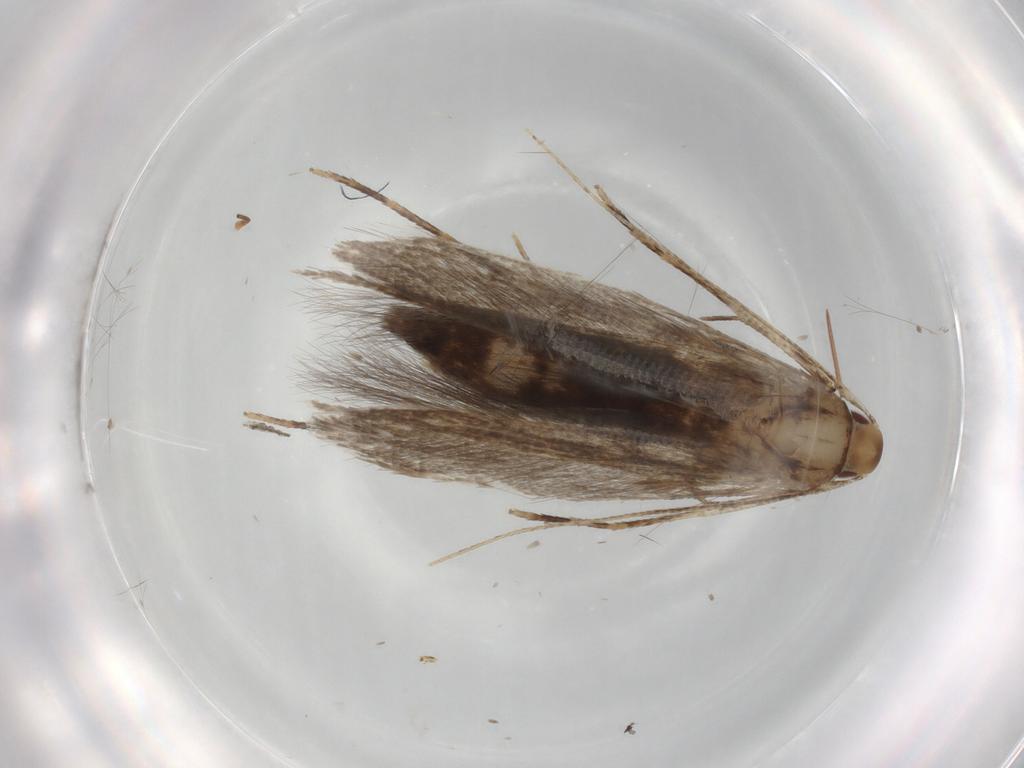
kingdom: Animalia
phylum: Arthropoda
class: Insecta
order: Lepidoptera
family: Cosmopterigidae
